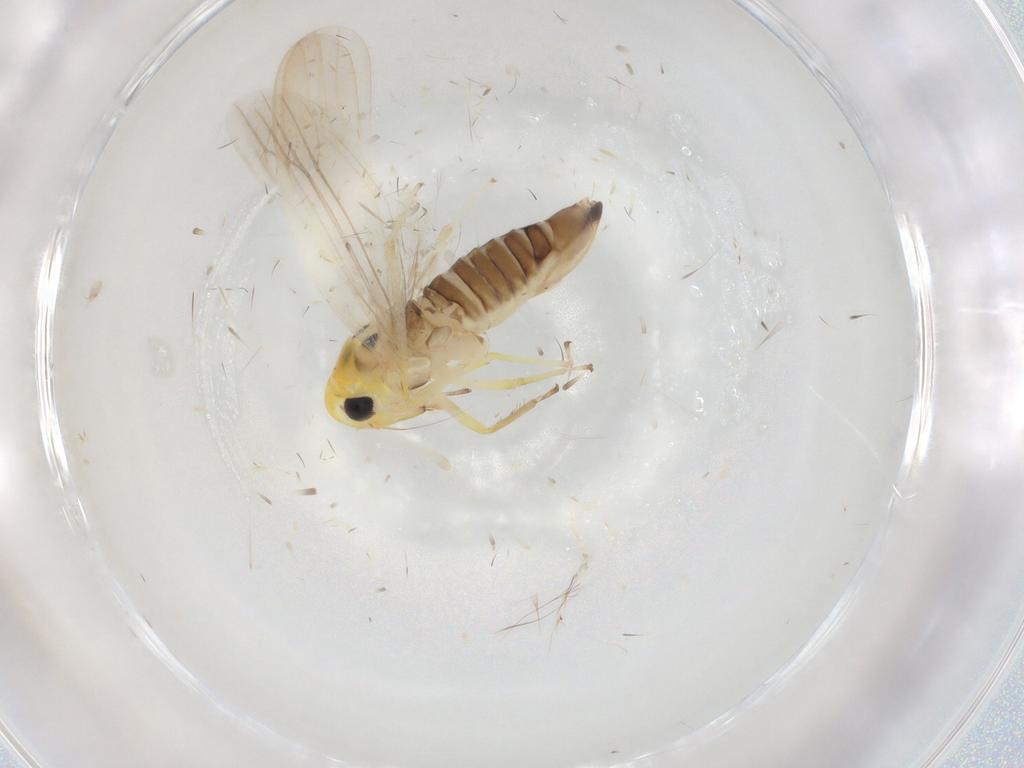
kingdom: Animalia
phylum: Arthropoda
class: Insecta
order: Hemiptera
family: Cicadellidae
